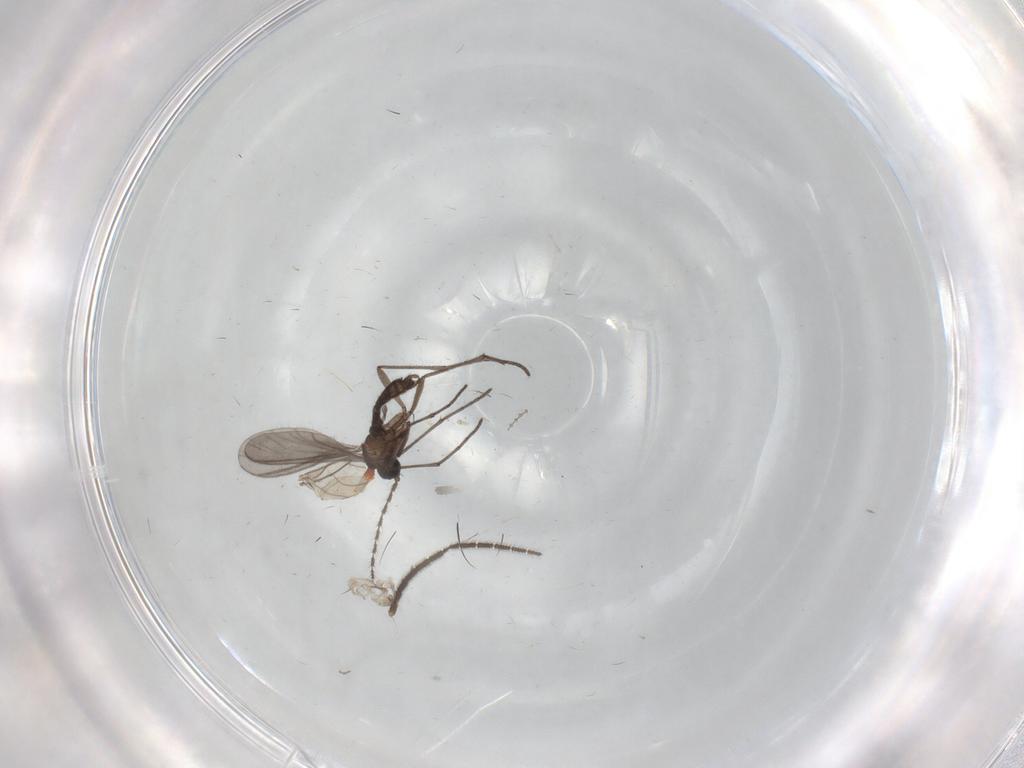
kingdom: Animalia
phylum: Arthropoda
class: Insecta
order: Diptera
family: Sciaridae
